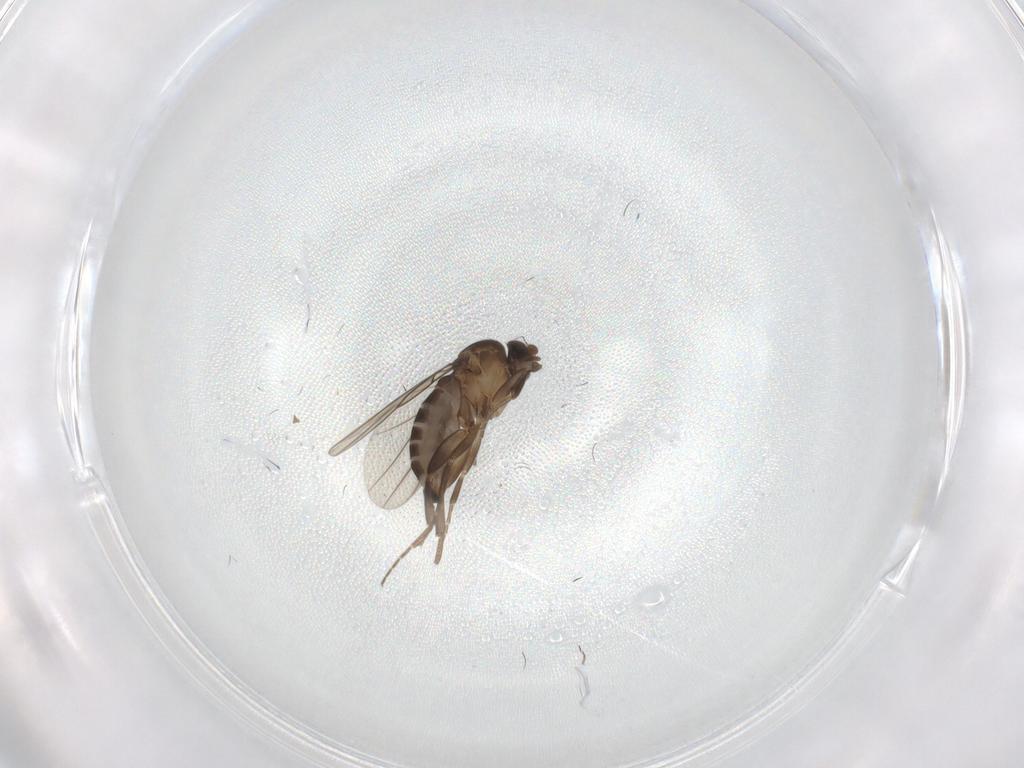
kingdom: Animalia
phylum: Arthropoda
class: Insecta
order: Diptera
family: Phoridae
